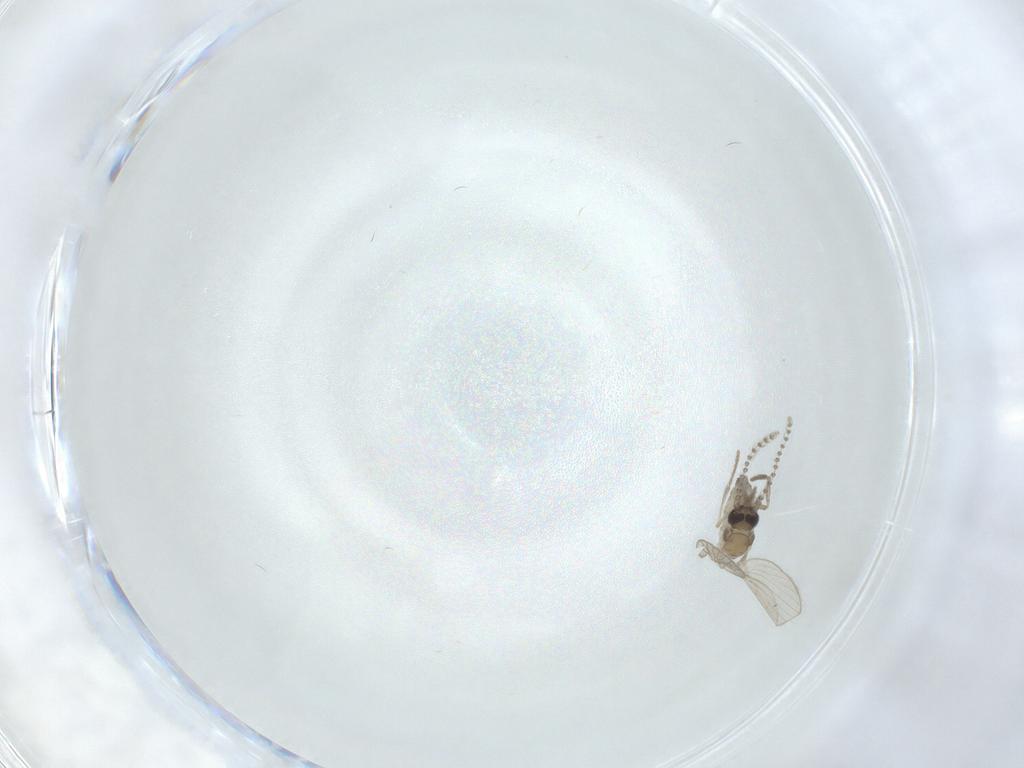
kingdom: Animalia
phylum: Arthropoda
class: Insecta
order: Diptera
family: Psychodidae
